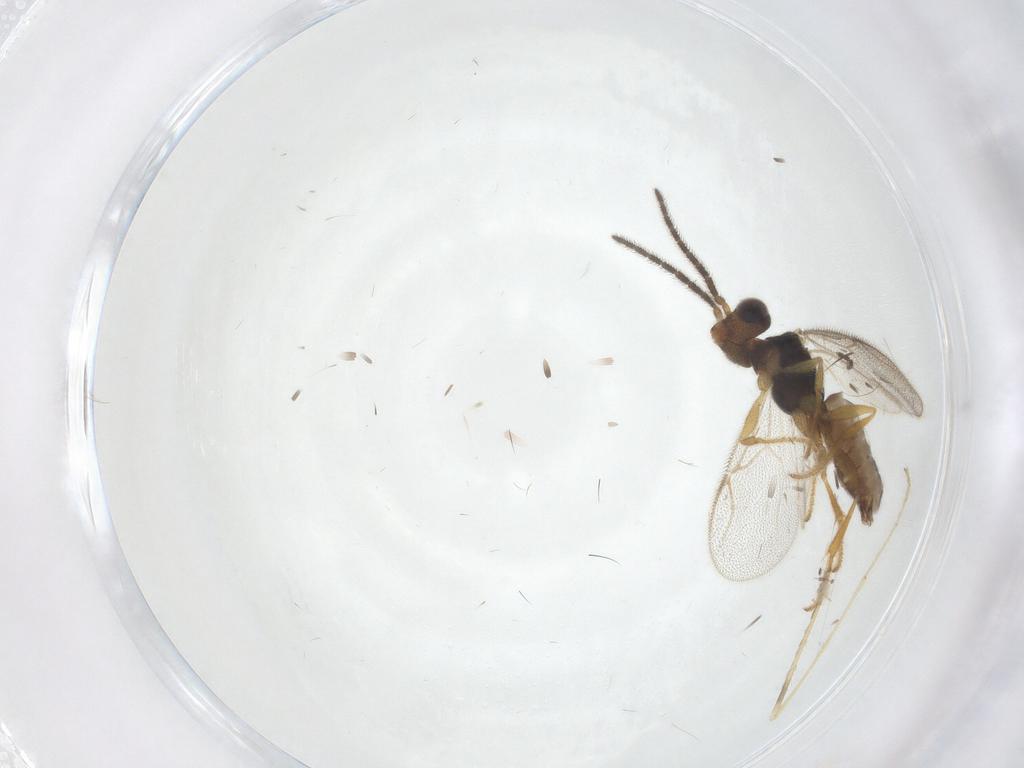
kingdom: Animalia
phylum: Arthropoda
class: Insecta
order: Hymenoptera
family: Dryinidae
